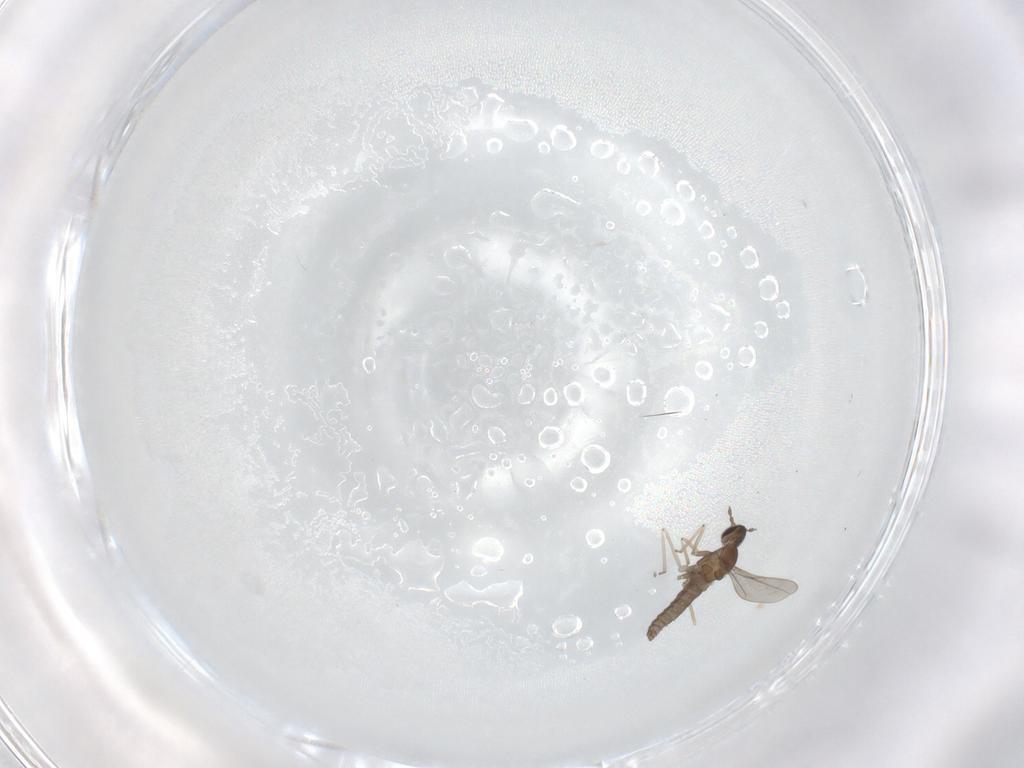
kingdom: Animalia
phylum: Arthropoda
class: Insecta
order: Diptera
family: Cecidomyiidae
